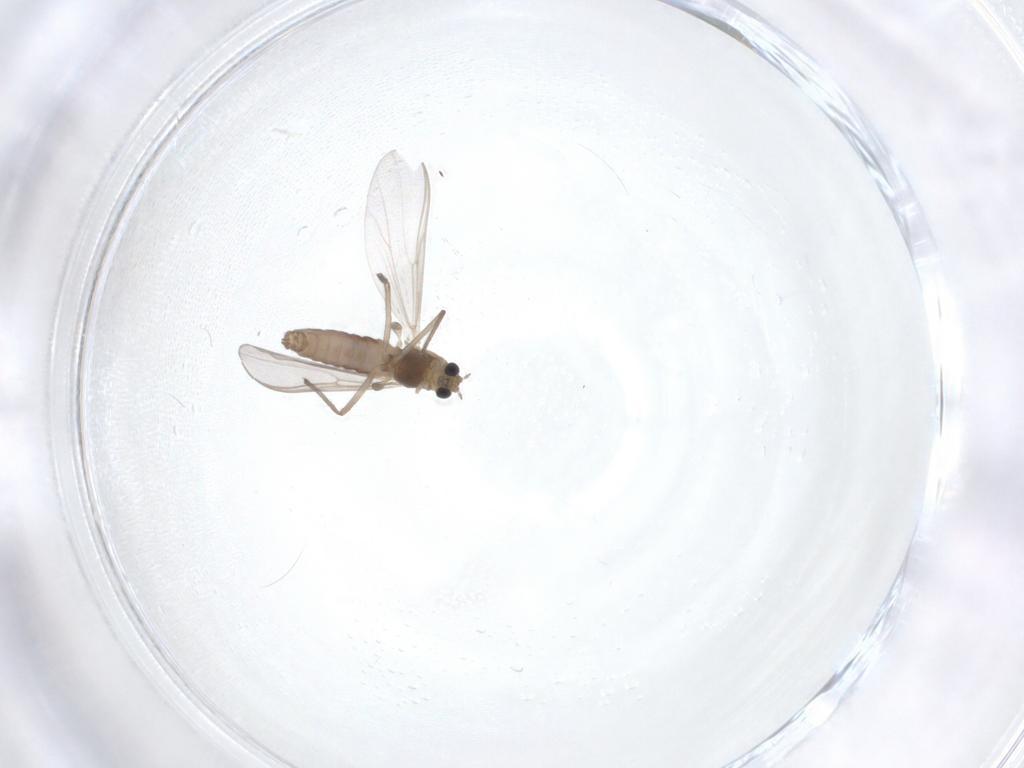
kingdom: Animalia
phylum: Arthropoda
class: Insecta
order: Diptera
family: Chironomidae
